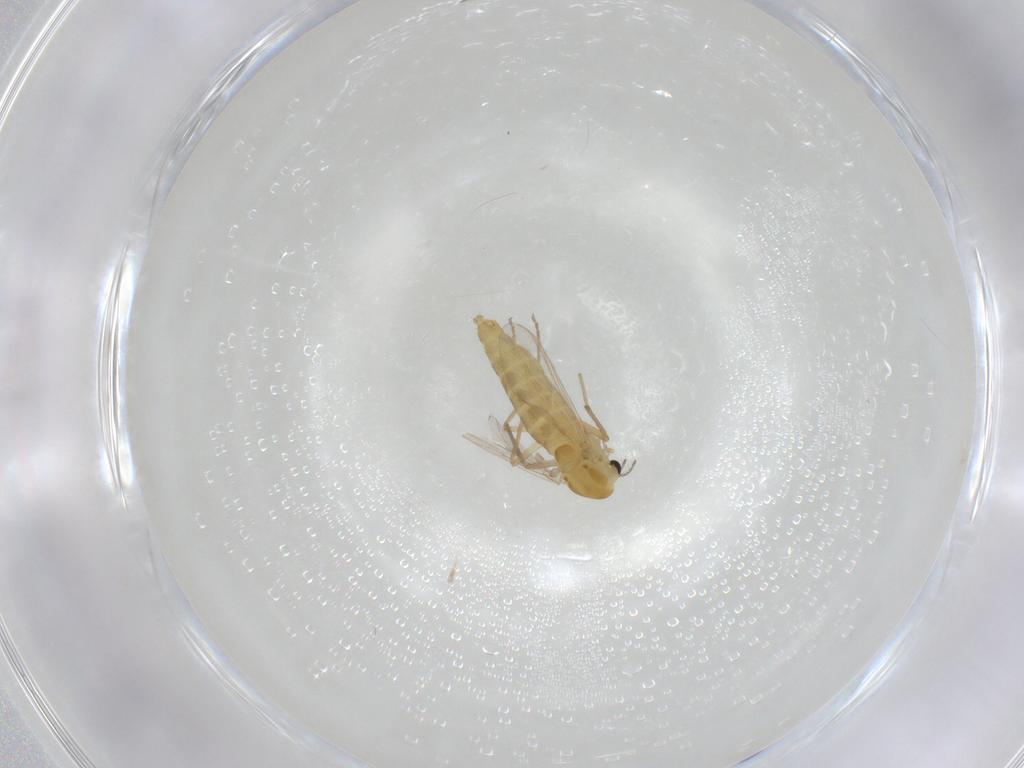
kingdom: Animalia
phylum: Arthropoda
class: Insecta
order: Diptera
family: Chironomidae
